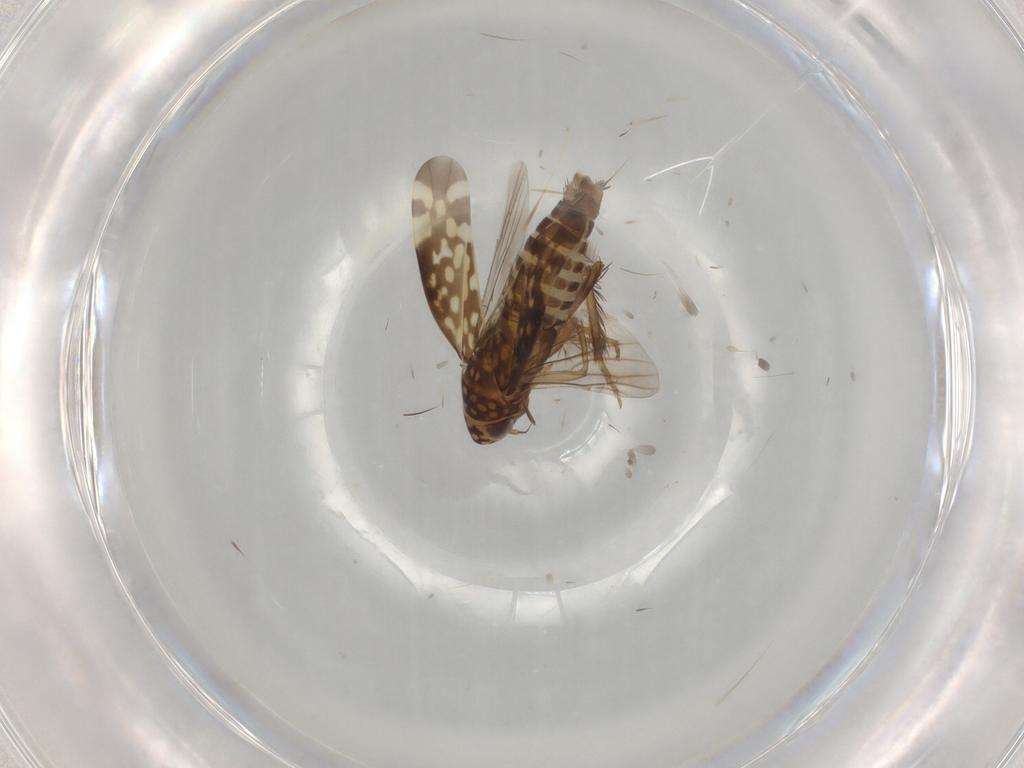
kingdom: Animalia
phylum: Arthropoda
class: Insecta
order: Hemiptera
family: Cicadellidae
